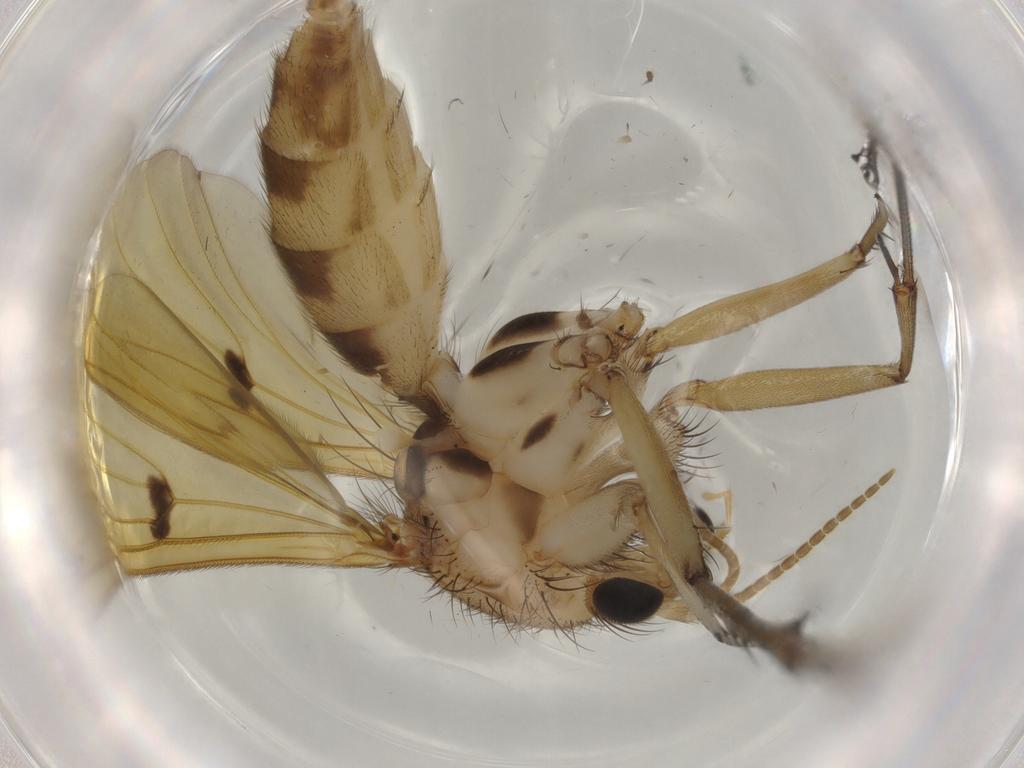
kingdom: Animalia
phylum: Arthropoda
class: Insecta
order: Diptera
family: Mycetophilidae
